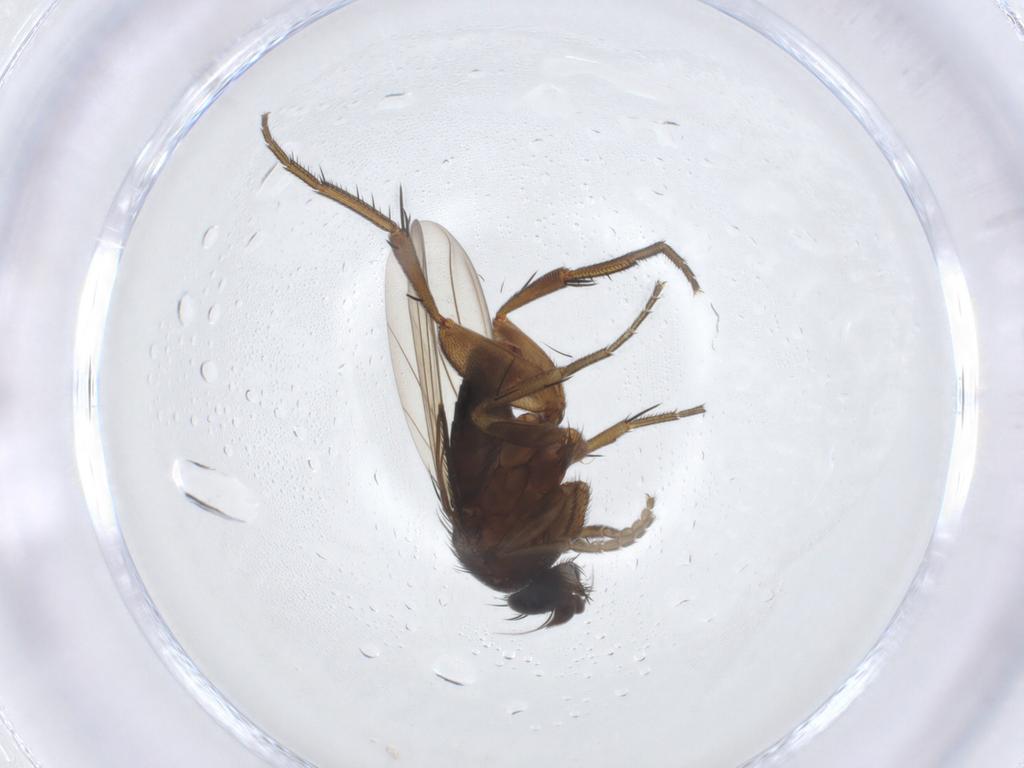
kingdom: Animalia
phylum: Arthropoda
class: Insecta
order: Diptera
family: Phoridae
